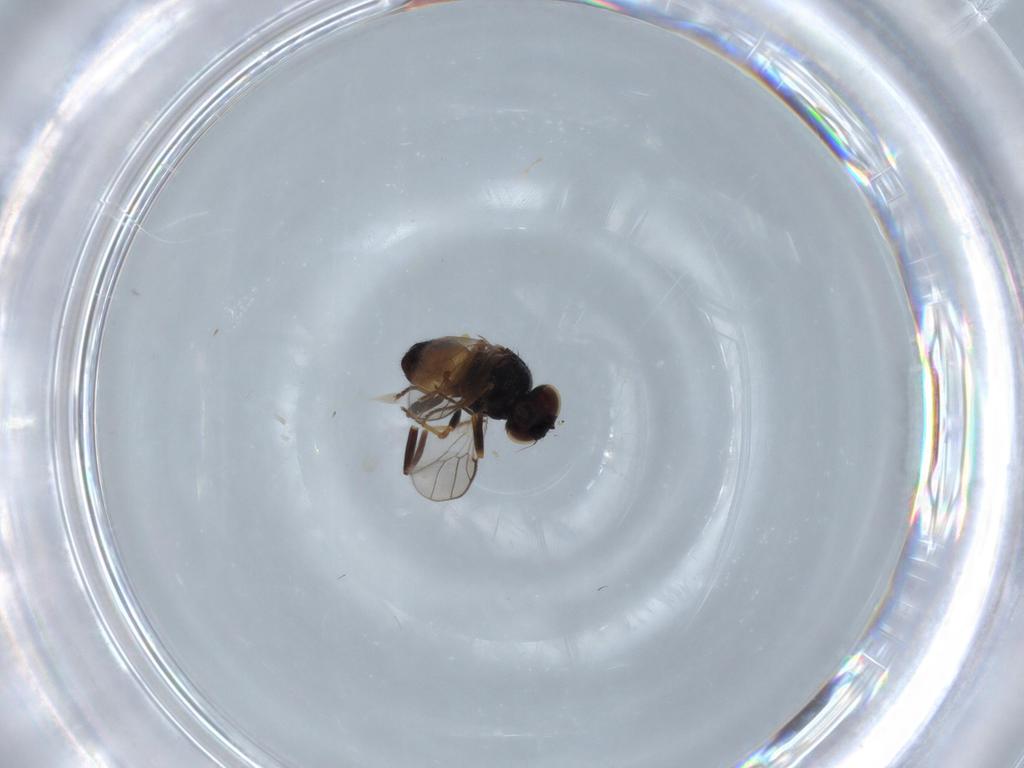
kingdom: Animalia
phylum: Arthropoda
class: Insecta
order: Diptera
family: Chloropidae
